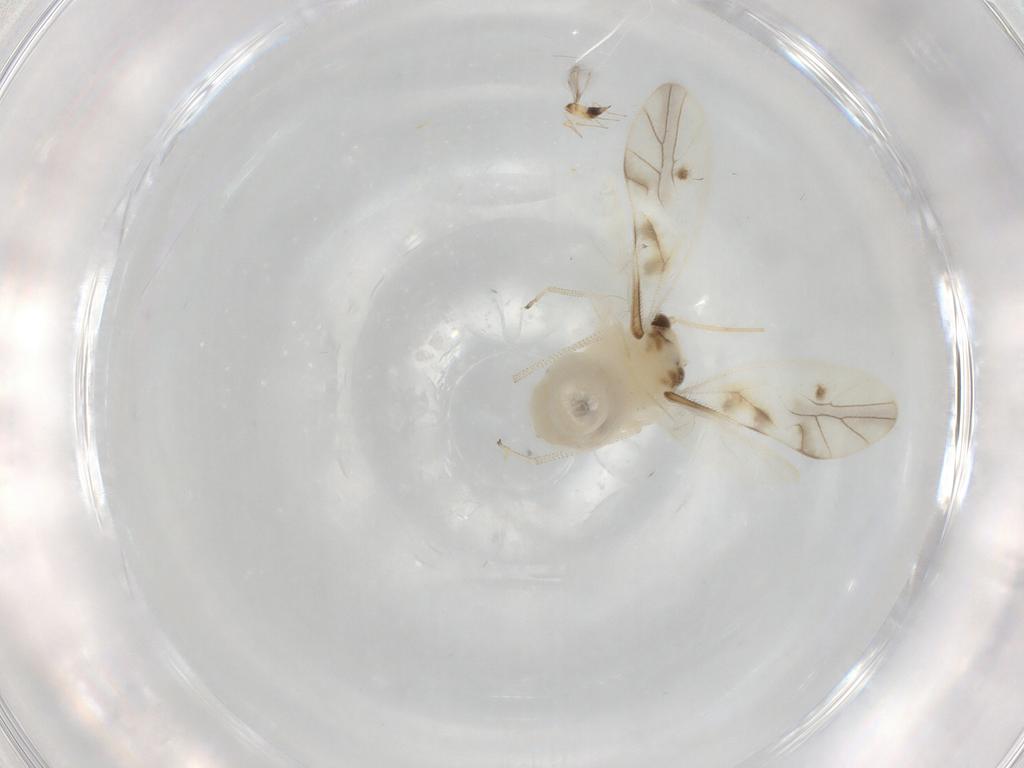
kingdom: Animalia
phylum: Arthropoda
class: Insecta
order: Psocodea
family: Caeciliusidae
